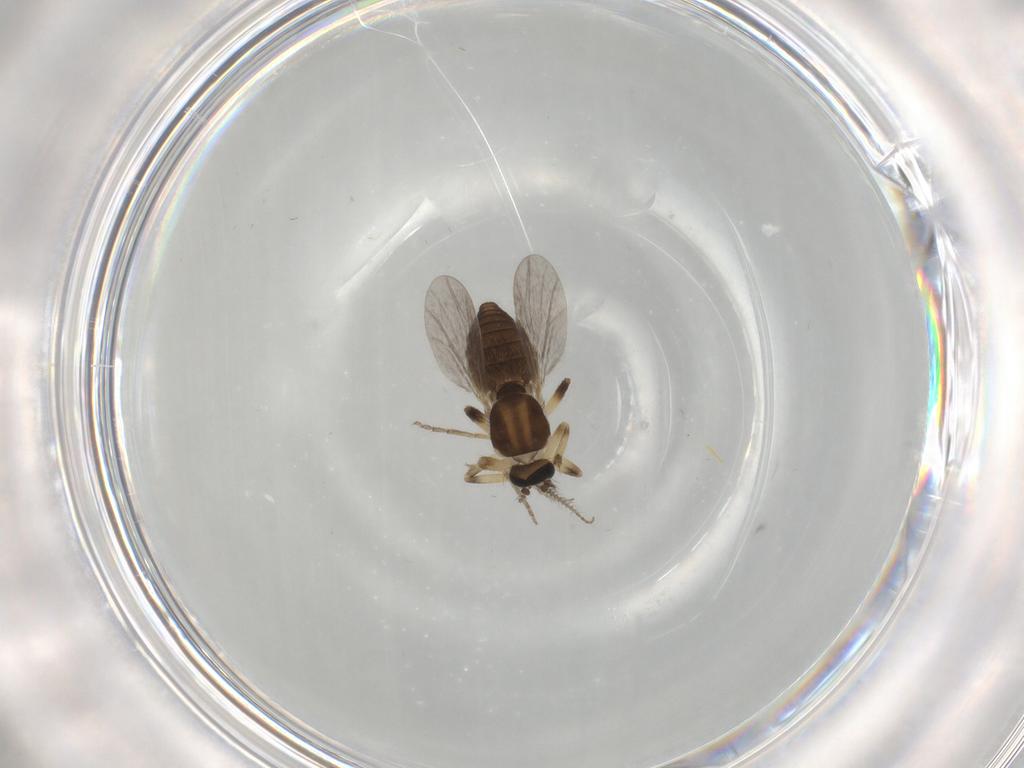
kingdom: Animalia
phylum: Arthropoda
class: Insecta
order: Diptera
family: Ceratopogonidae
